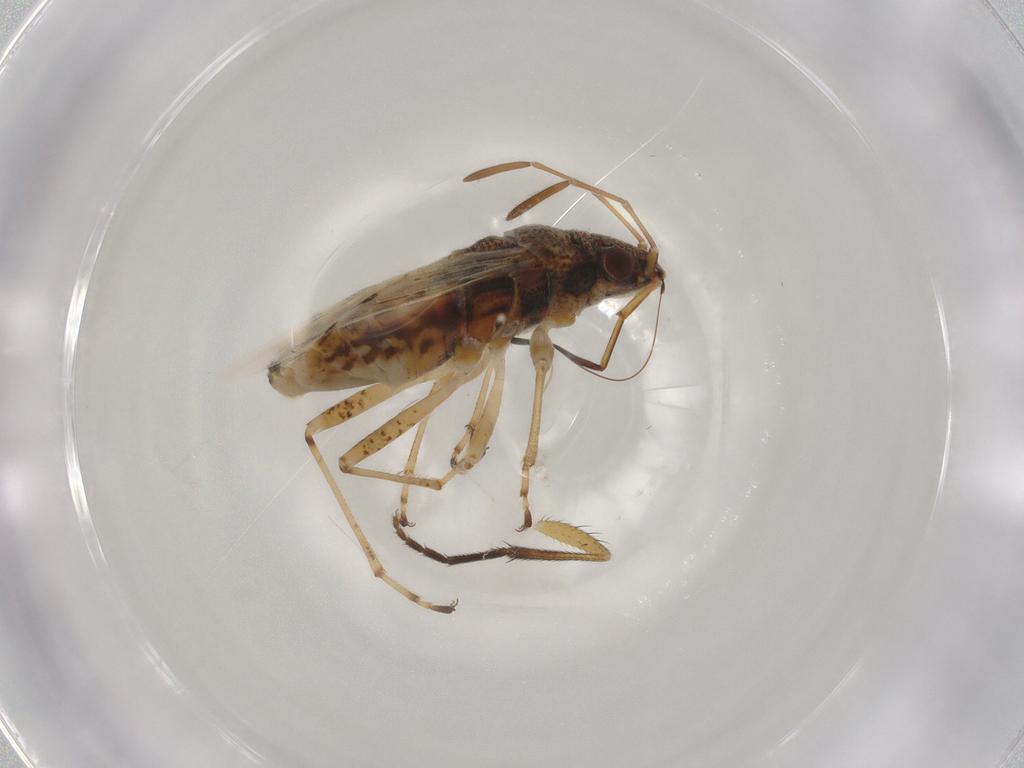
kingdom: Animalia
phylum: Arthropoda
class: Insecta
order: Hemiptera
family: Lygaeidae
